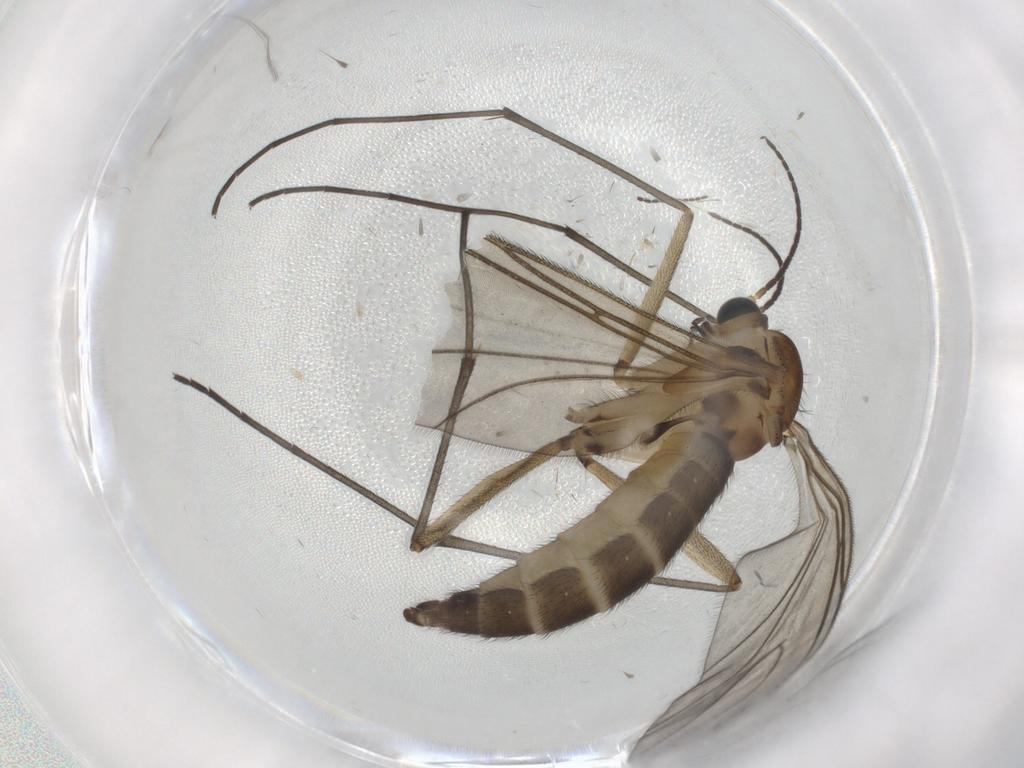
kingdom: Animalia
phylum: Arthropoda
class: Insecta
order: Diptera
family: Sciaridae
